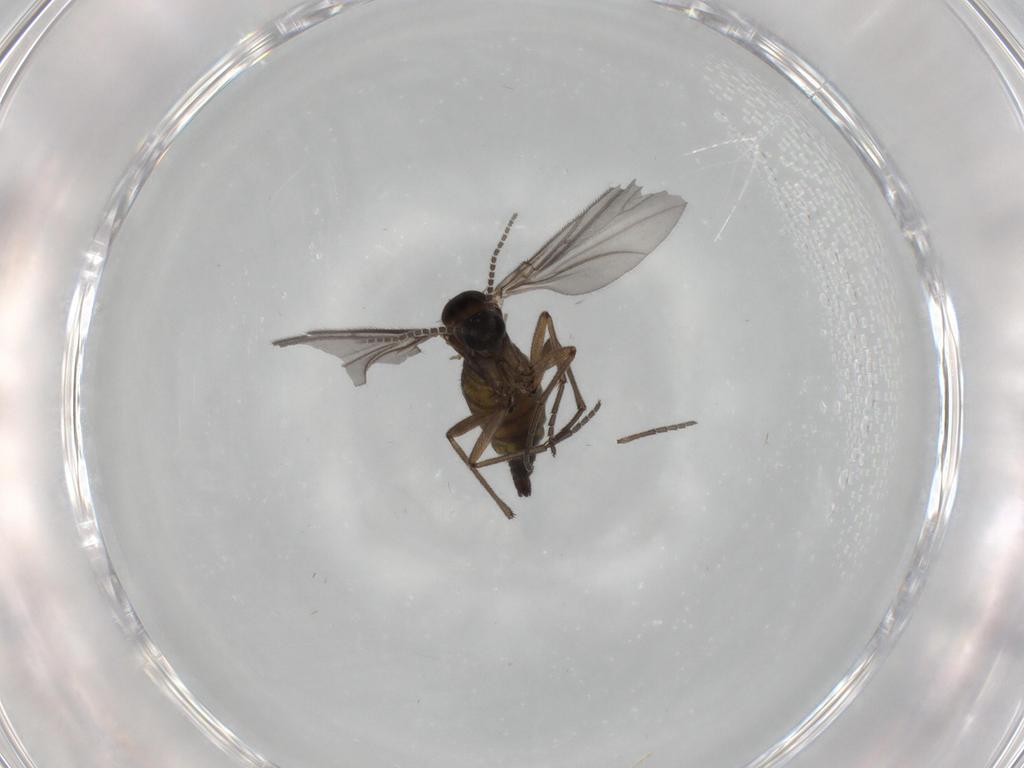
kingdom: Animalia
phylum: Arthropoda
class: Insecta
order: Diptera
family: Sciaridae
